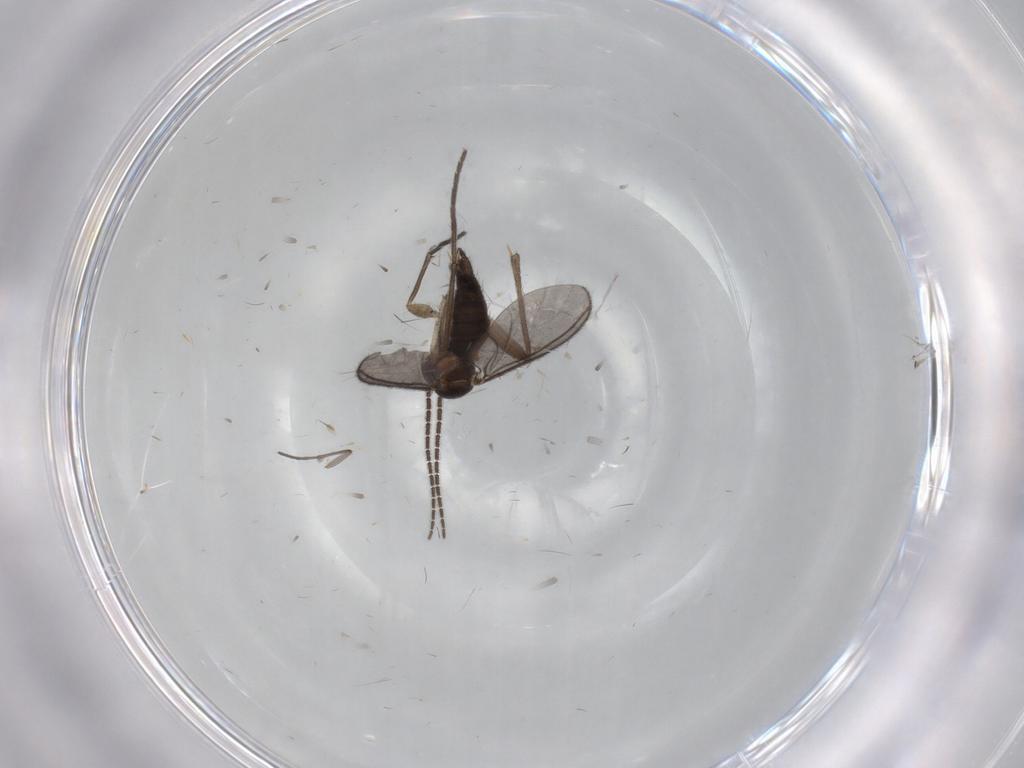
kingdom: Animalia
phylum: Arthropoda
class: Insecta
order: Diptera
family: Sciaridae
